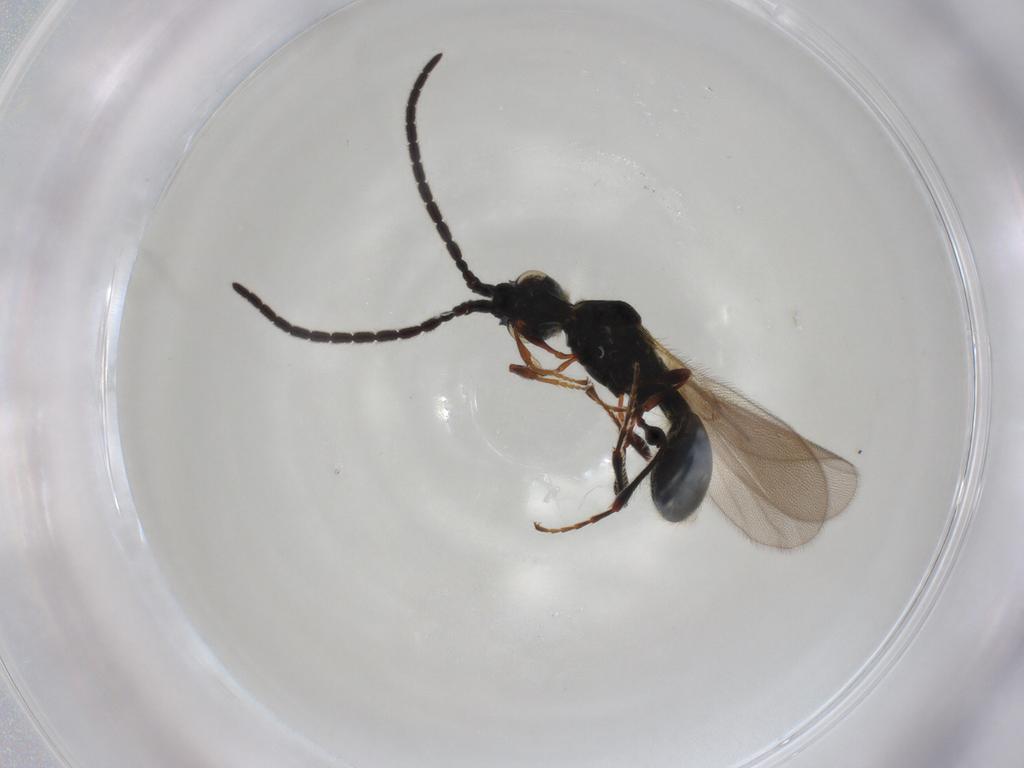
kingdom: Animalia
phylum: Arthropoda
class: Insecta
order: Hymenoptera
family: Diapriidae
